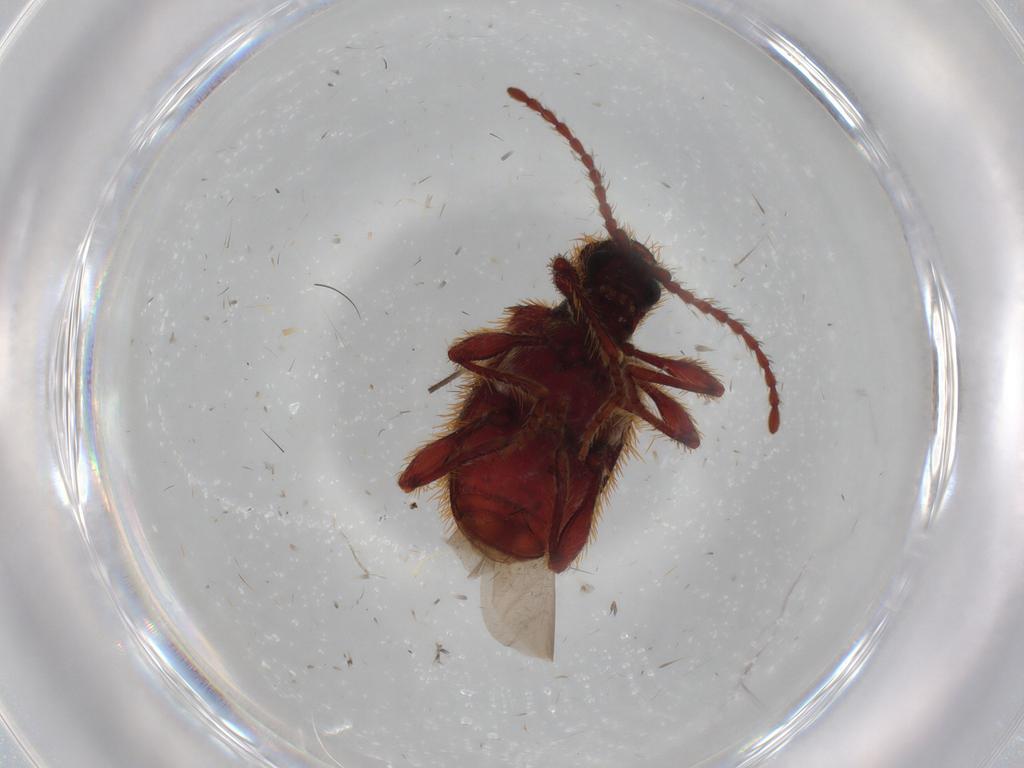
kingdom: Animalia
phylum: Arthropoda
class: Insecta
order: Coleoptera
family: Ptinidae
